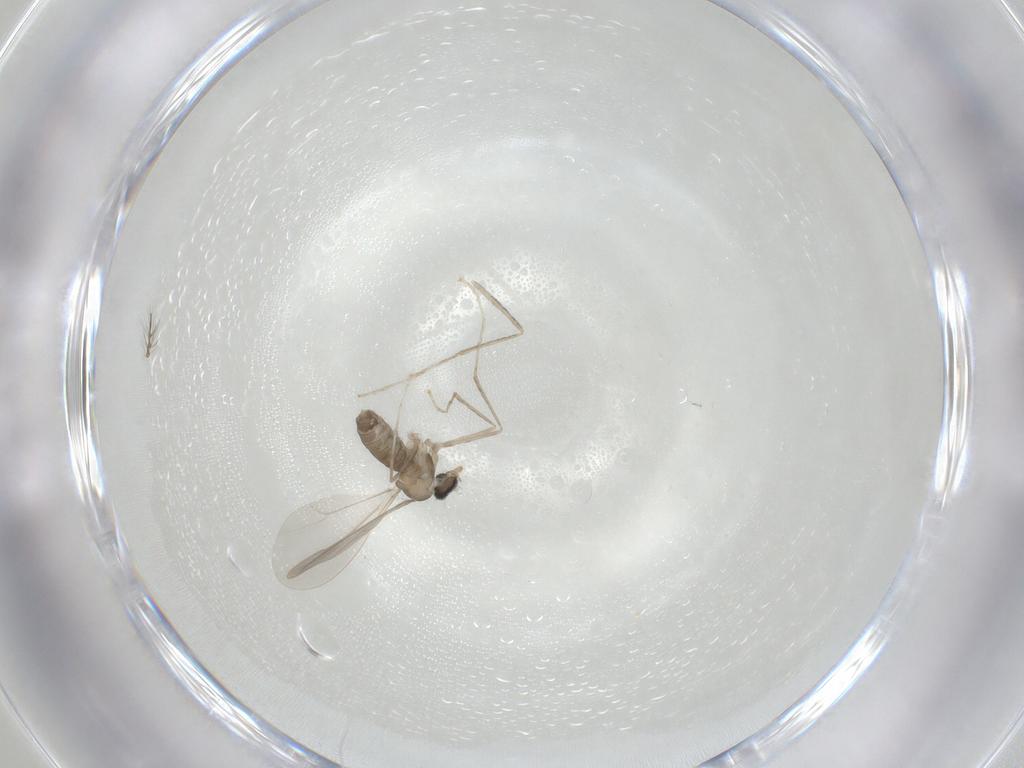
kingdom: Animalia
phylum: Arthropoda
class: Insecta
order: Diptera
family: Cecidomyiidae
